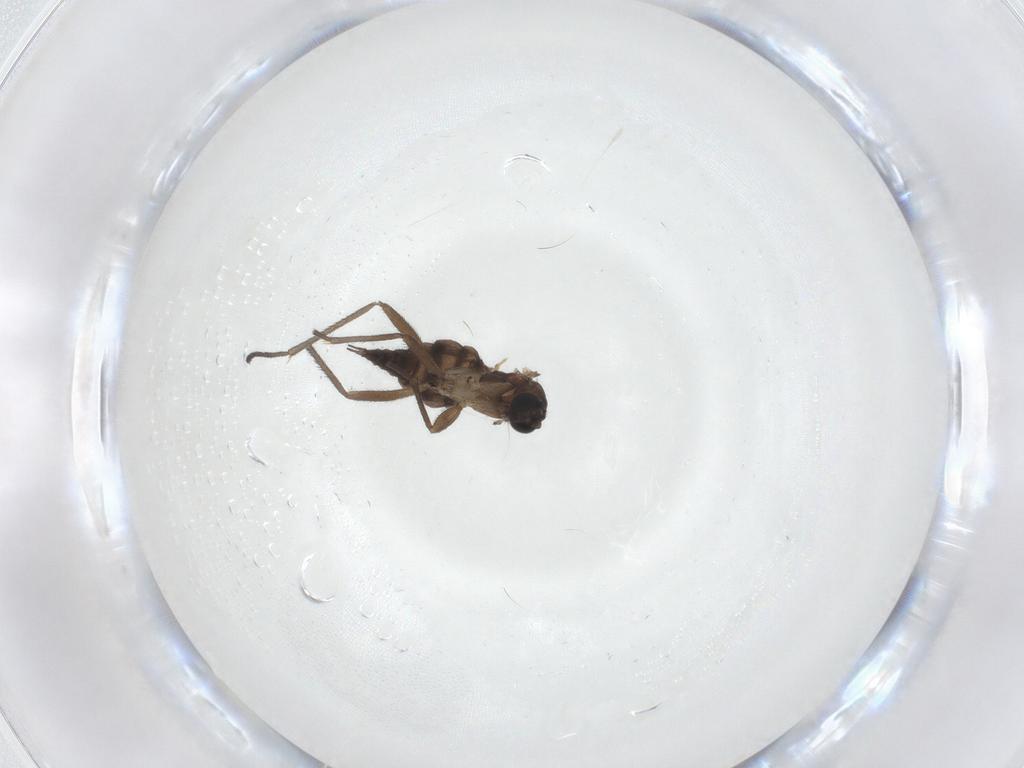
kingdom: Animalia
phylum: Arthropoda
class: Insecta
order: Diptera
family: Sciaridae
